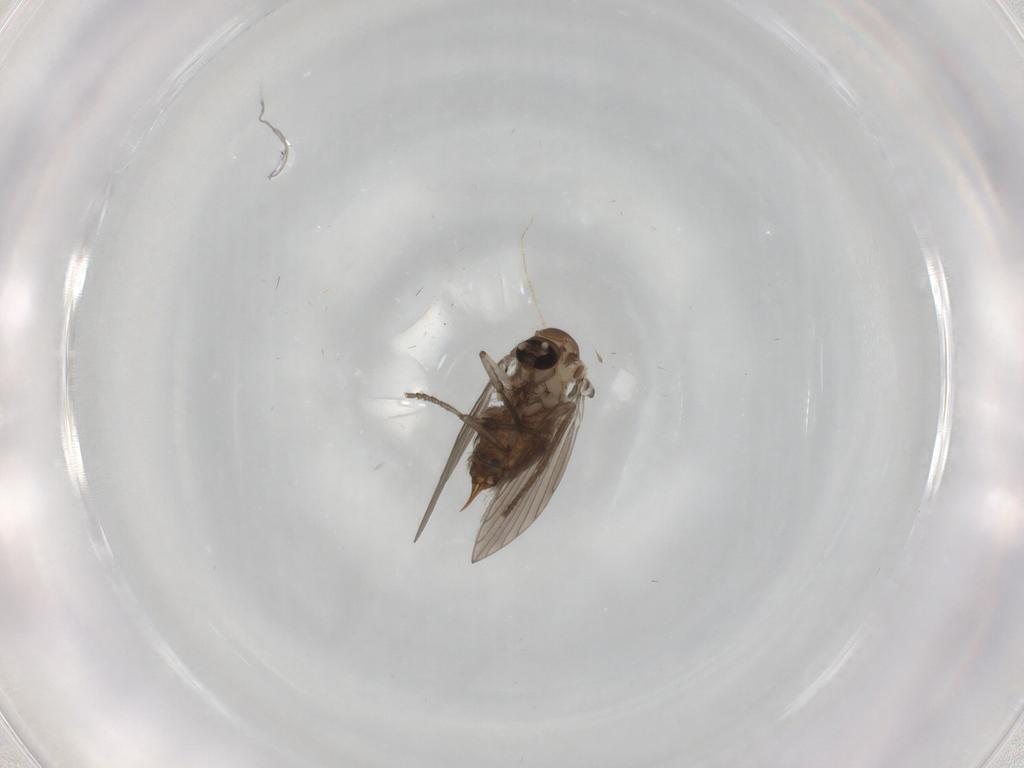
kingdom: Animalia
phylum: Arthropoda
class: Insecta
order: Diptera
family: Psychodidae
